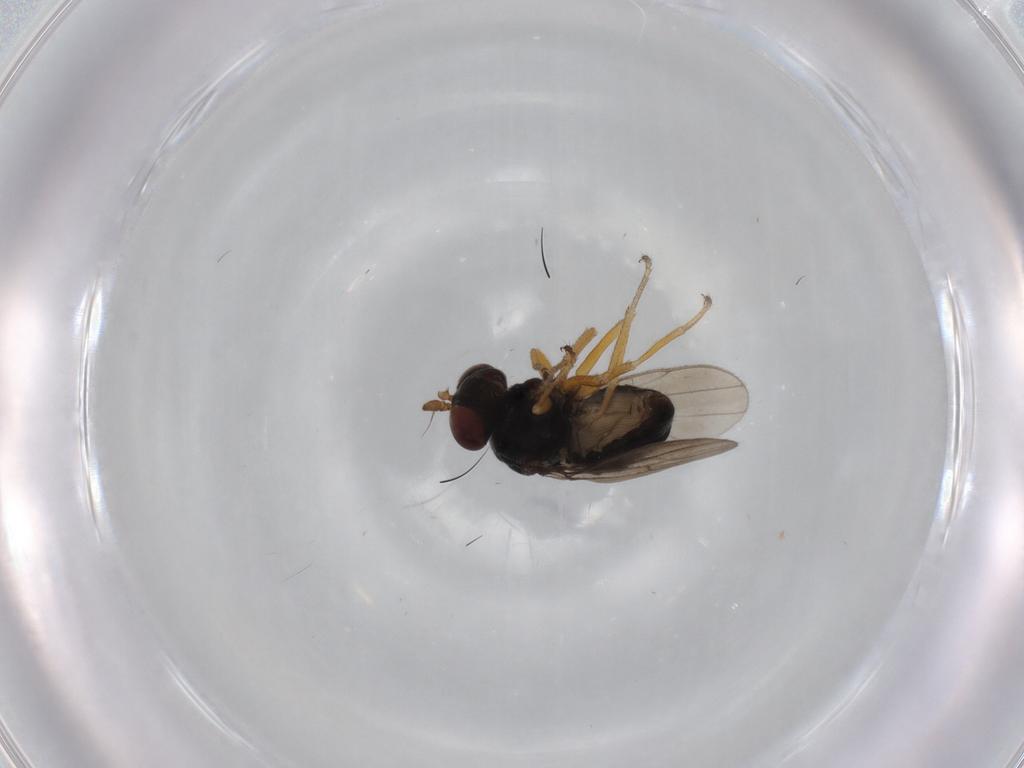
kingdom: Animalia
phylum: Arthropoda
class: Insecta
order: Diptera
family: Ephydridae
